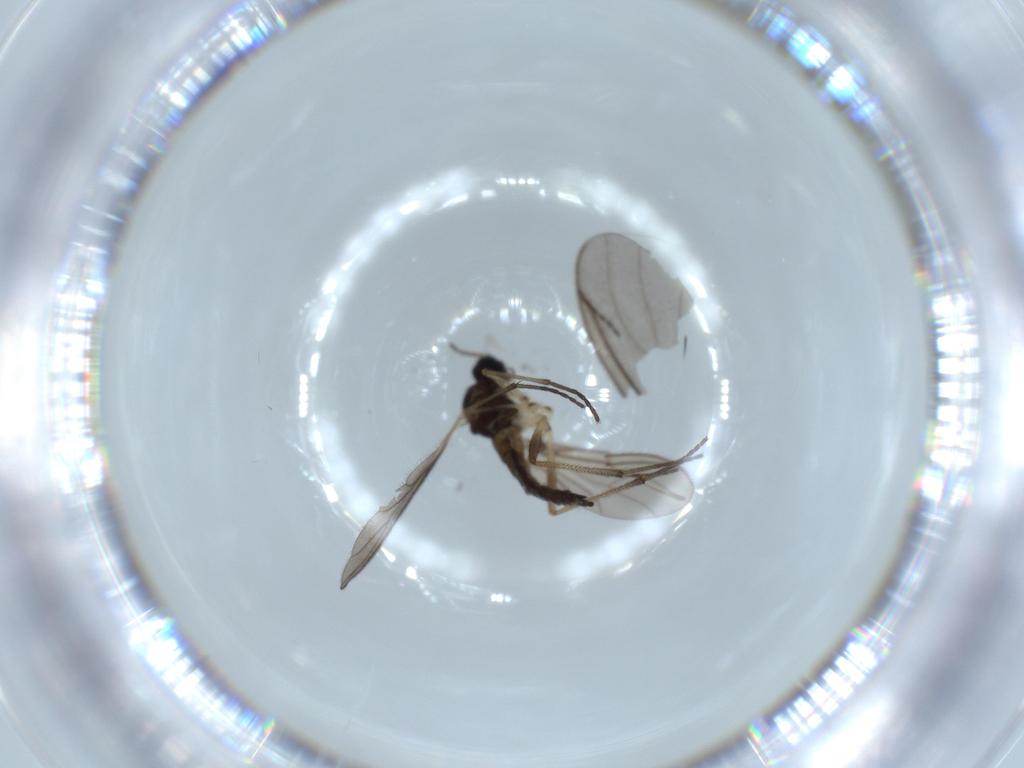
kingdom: Animalia
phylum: Arthropoda
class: Insecta
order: Diptera
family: Sciaridae
